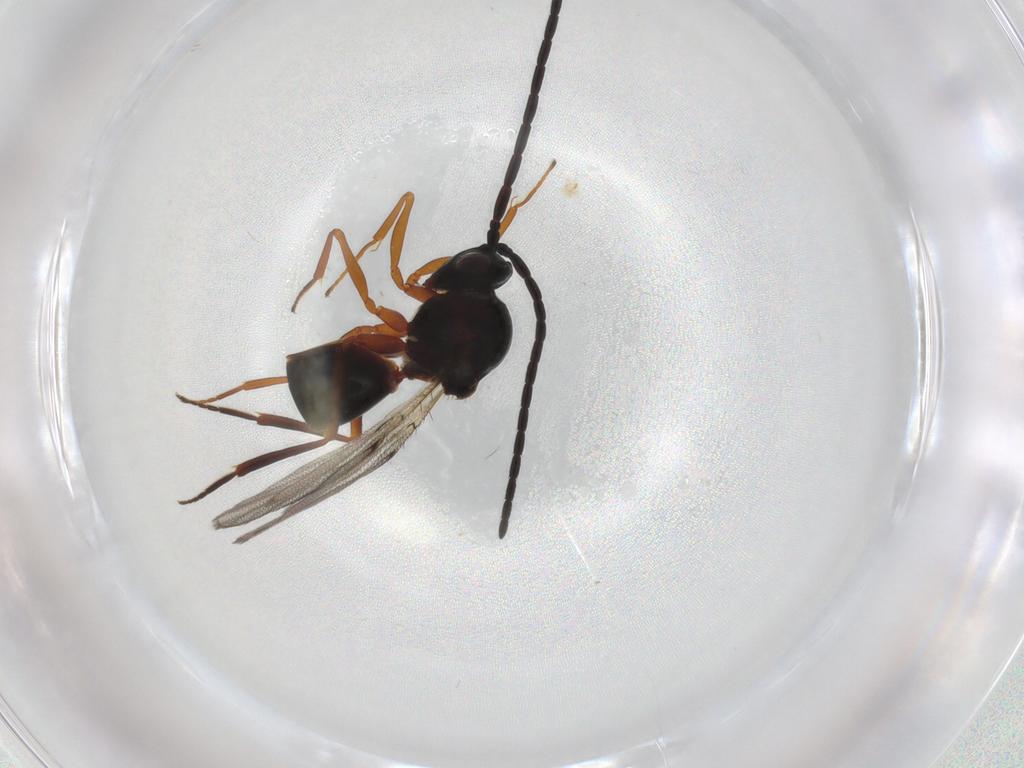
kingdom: Animalia
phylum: Arthropoda
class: Insecta
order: Hymenoptera
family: Figitidae
